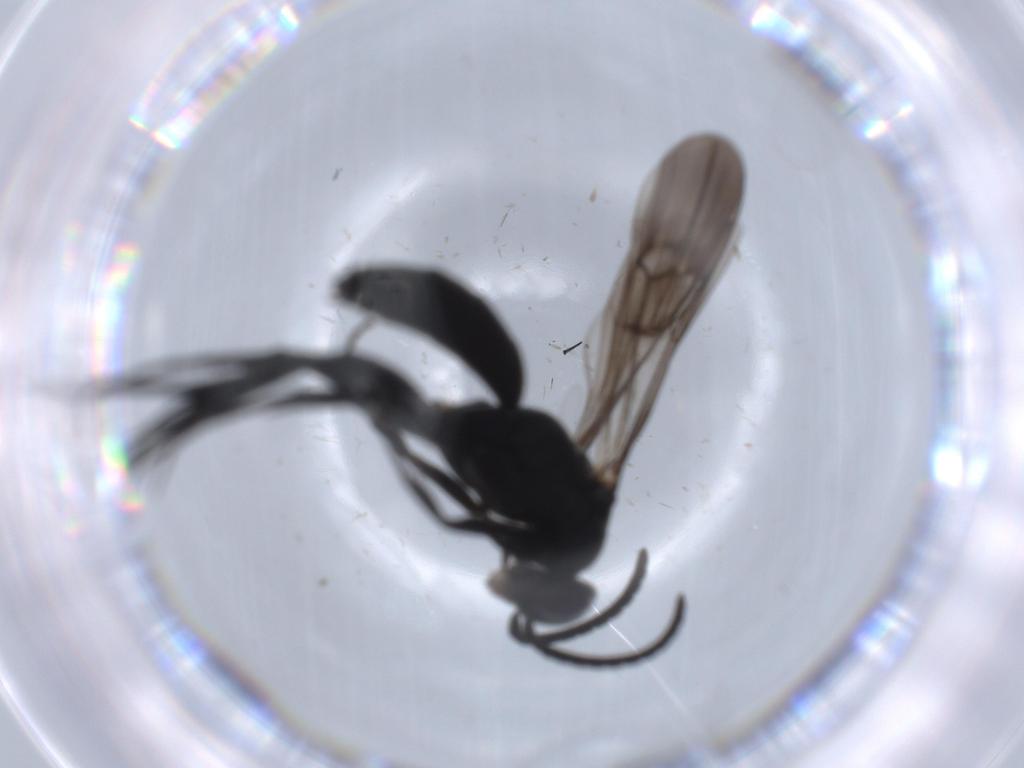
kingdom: Animalia
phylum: Arthropoda
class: Insecta
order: Hymenoptera
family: Pompilidae
